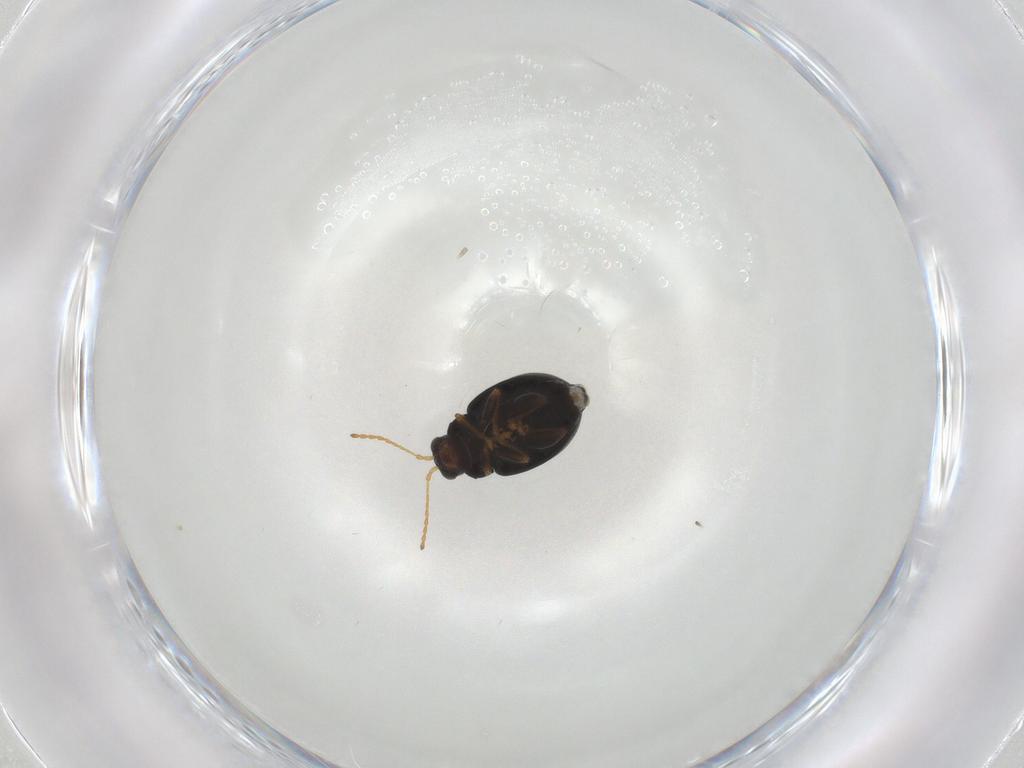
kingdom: Animalia
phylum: Arthropoda
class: Insecta
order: Coleoptera
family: Chrysomelidae
